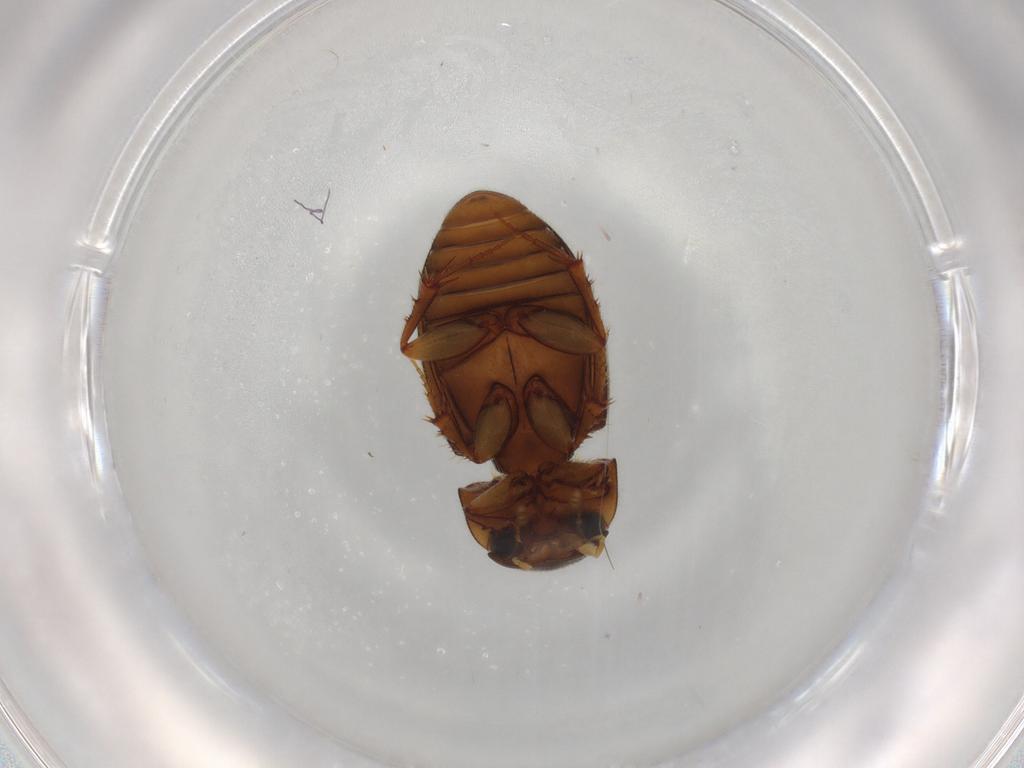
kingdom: Animalia
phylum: Arthropoda
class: Insecta
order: Coleoptera
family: Scarabaeidae
